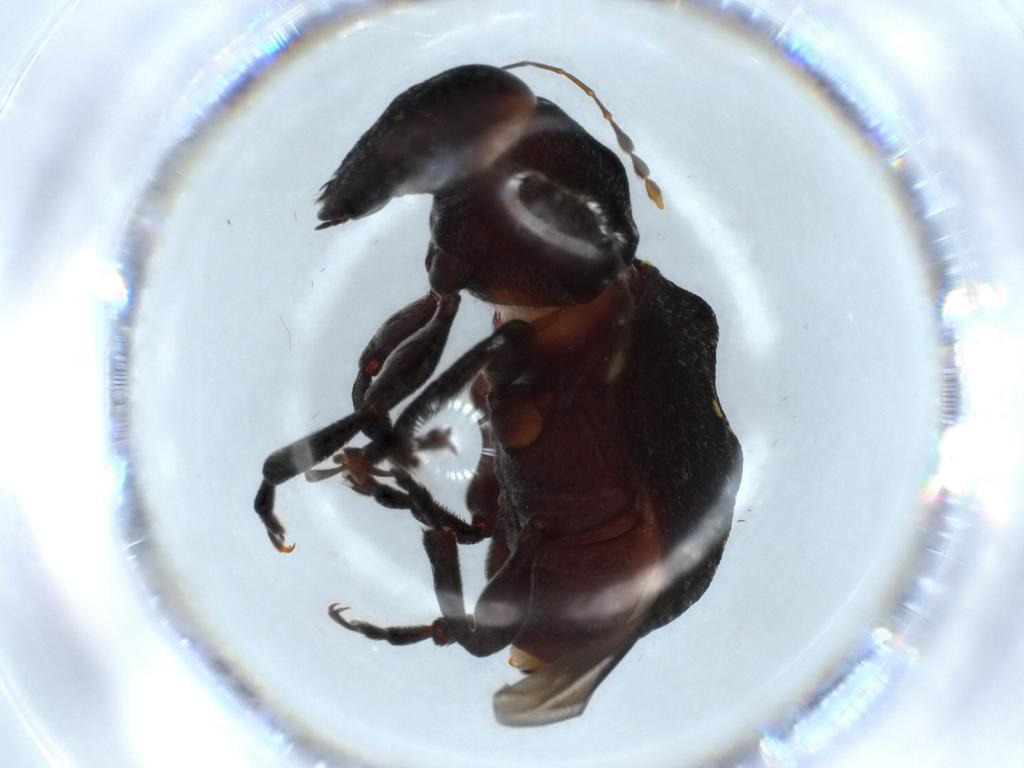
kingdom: Animalia
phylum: Arthropoda
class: Insecta
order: Coleoptera
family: Anthribidae
